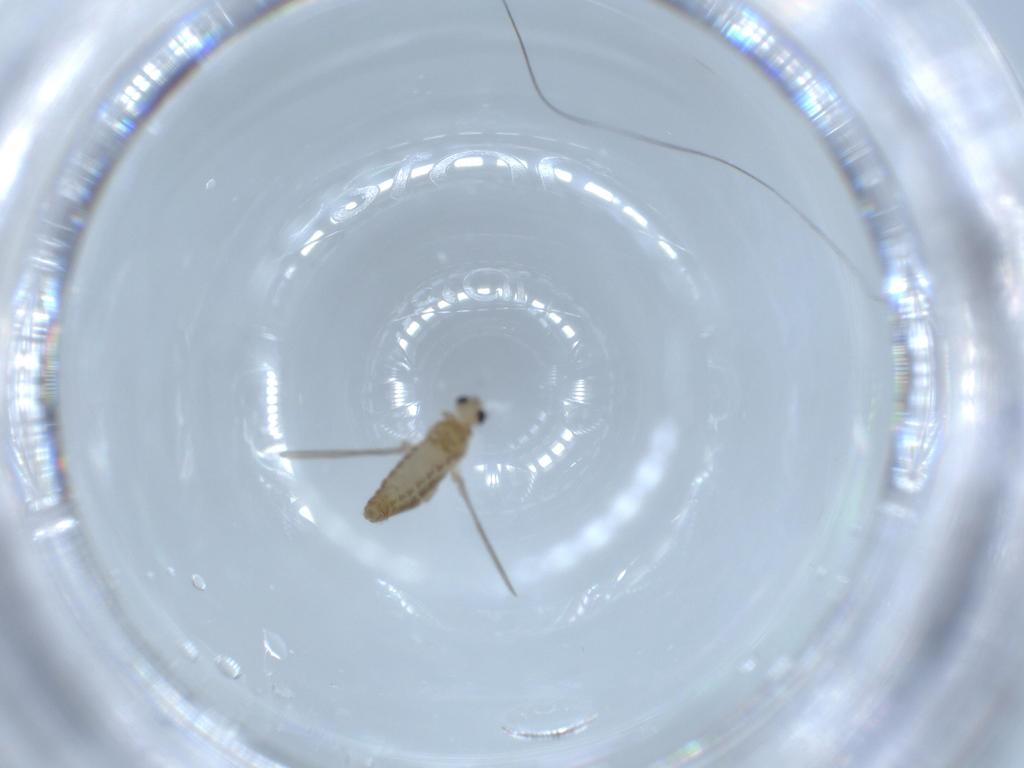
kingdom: Animalia
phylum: Arthropoda
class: Insecta
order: Diptera
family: Chironomidae
